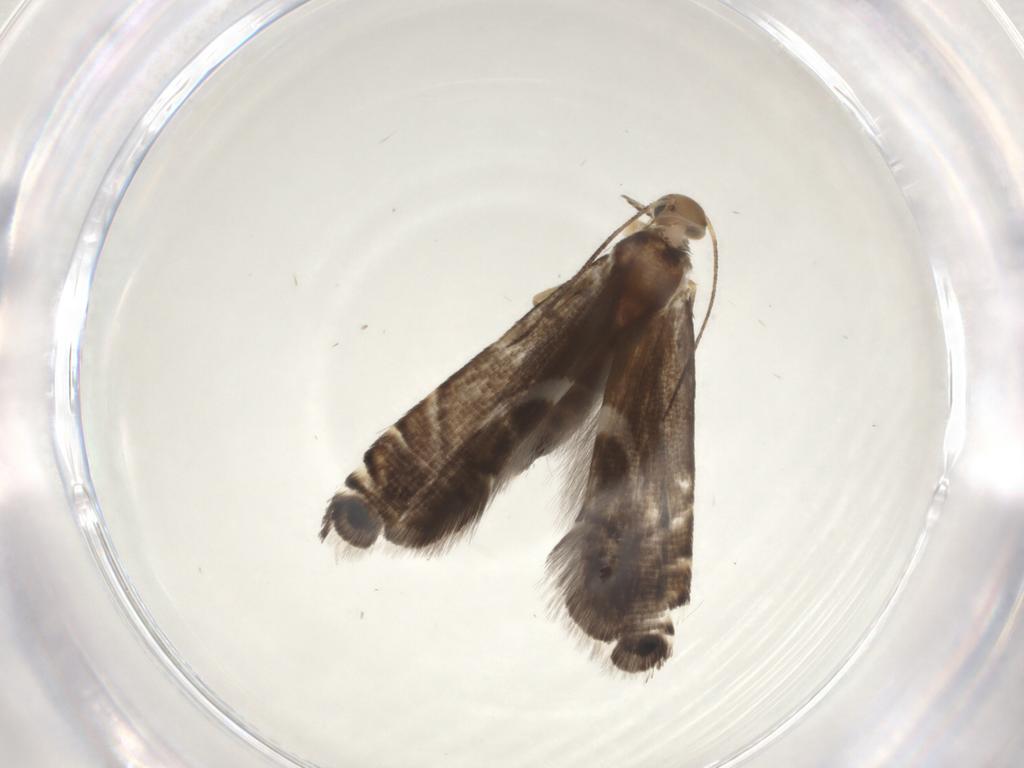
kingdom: Animalia
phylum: Arthropoda
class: Insecta
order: Lepidoptera
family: Glyphipterigidae
